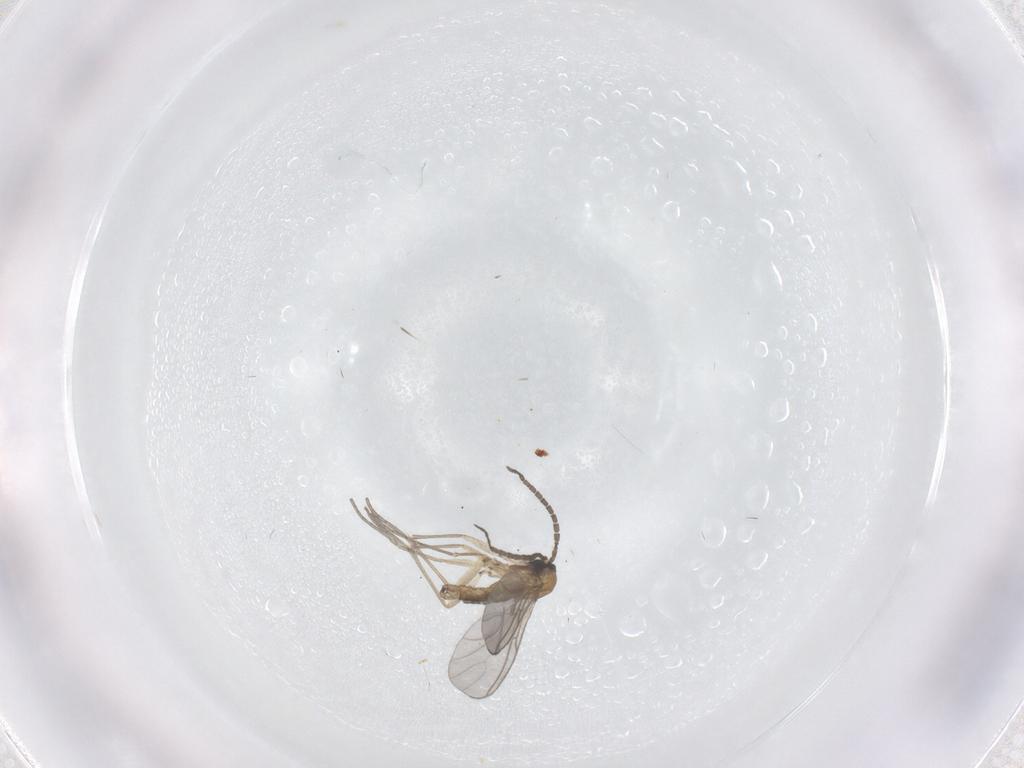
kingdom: Animalia
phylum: Arthropoda
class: Insecta
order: Diptera
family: Sciaridae
